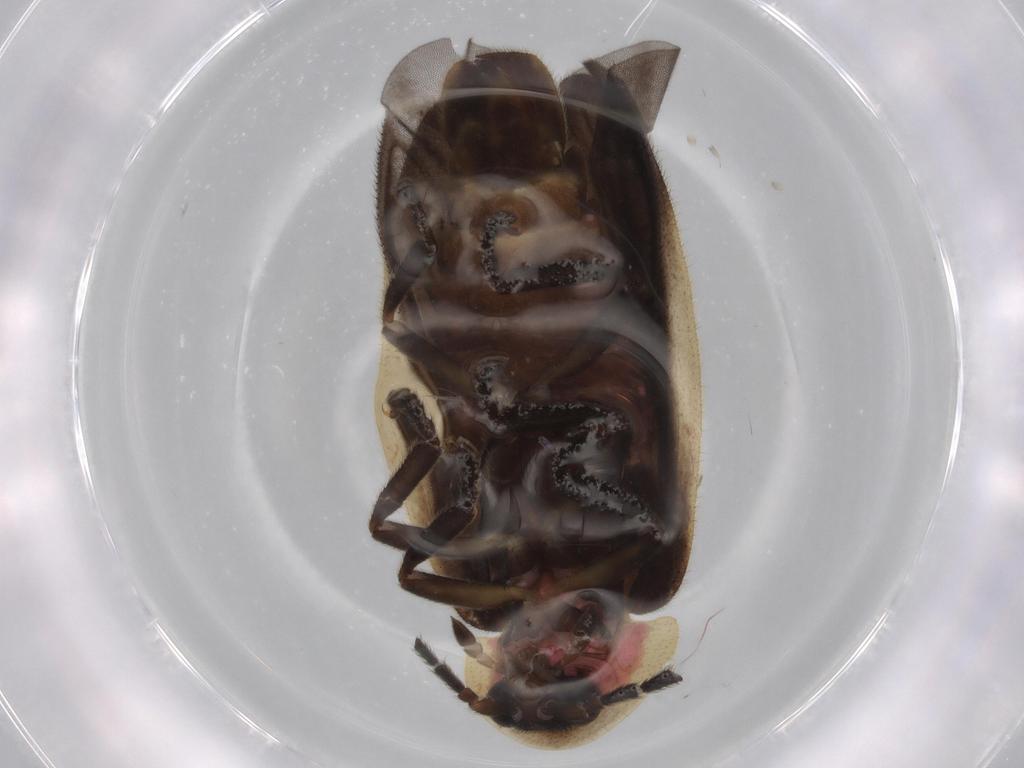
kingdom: Animalia
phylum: Arthropoda
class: Insecta
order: Coleoptera
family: Lampyridae
